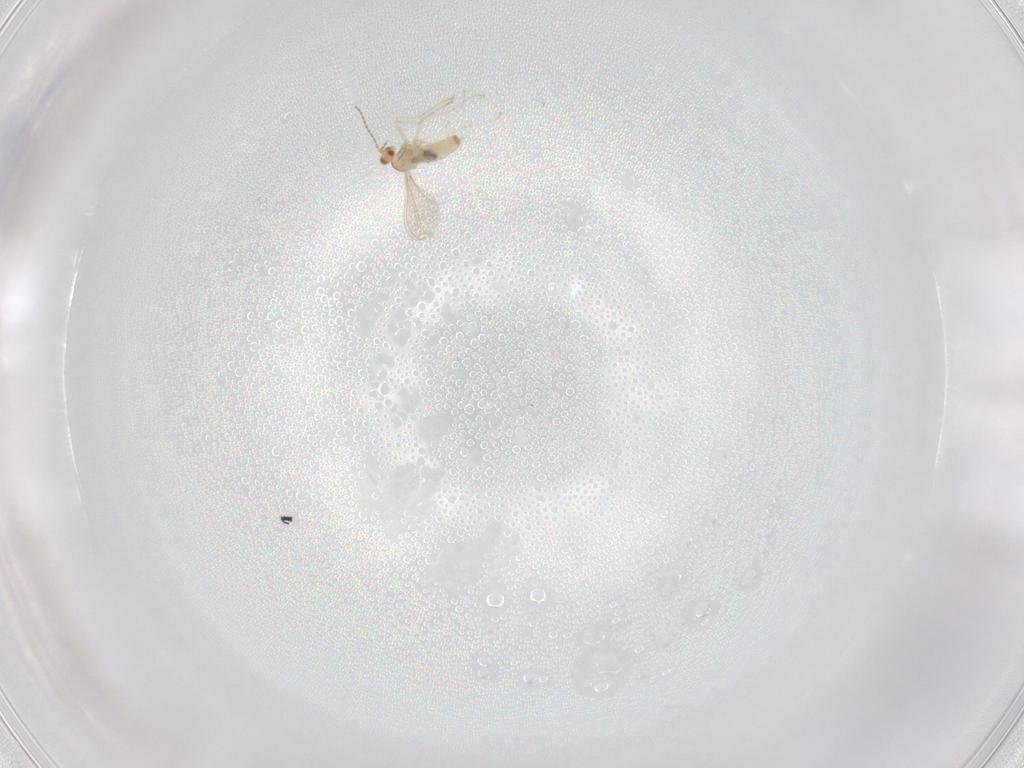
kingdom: Animalia
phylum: Arthropoda
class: Insecta
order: Diptera
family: Cecidomyiidae
